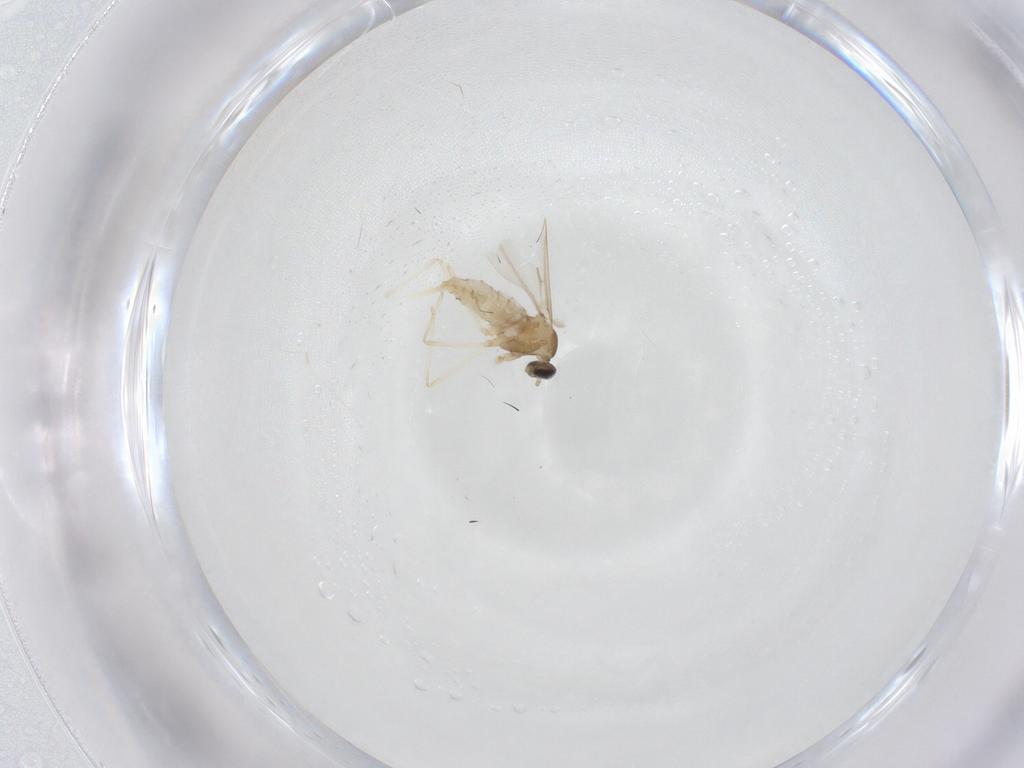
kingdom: Animalia
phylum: Arthropoda
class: Insecta
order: Diptera
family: Cecidomyiidae
